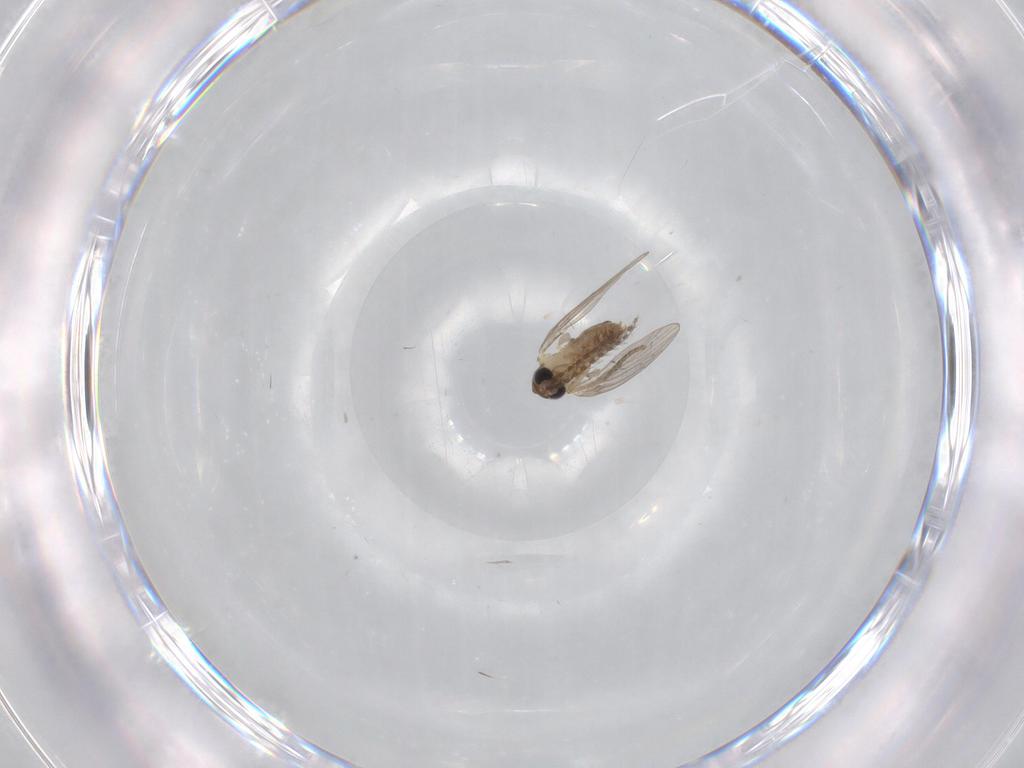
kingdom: Animalia
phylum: Arthropoda
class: Insecta
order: Diptera
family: Psychodidae
